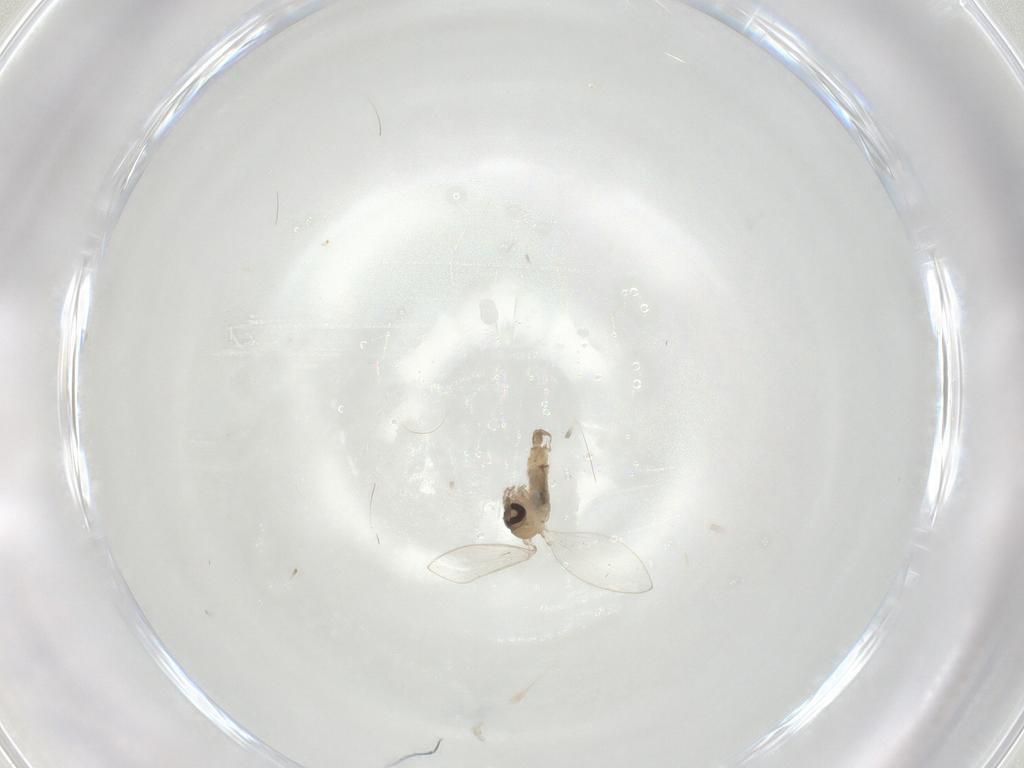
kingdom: Animalia
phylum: Arthropoda
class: Insecta
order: Diptera
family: Psychodidae
